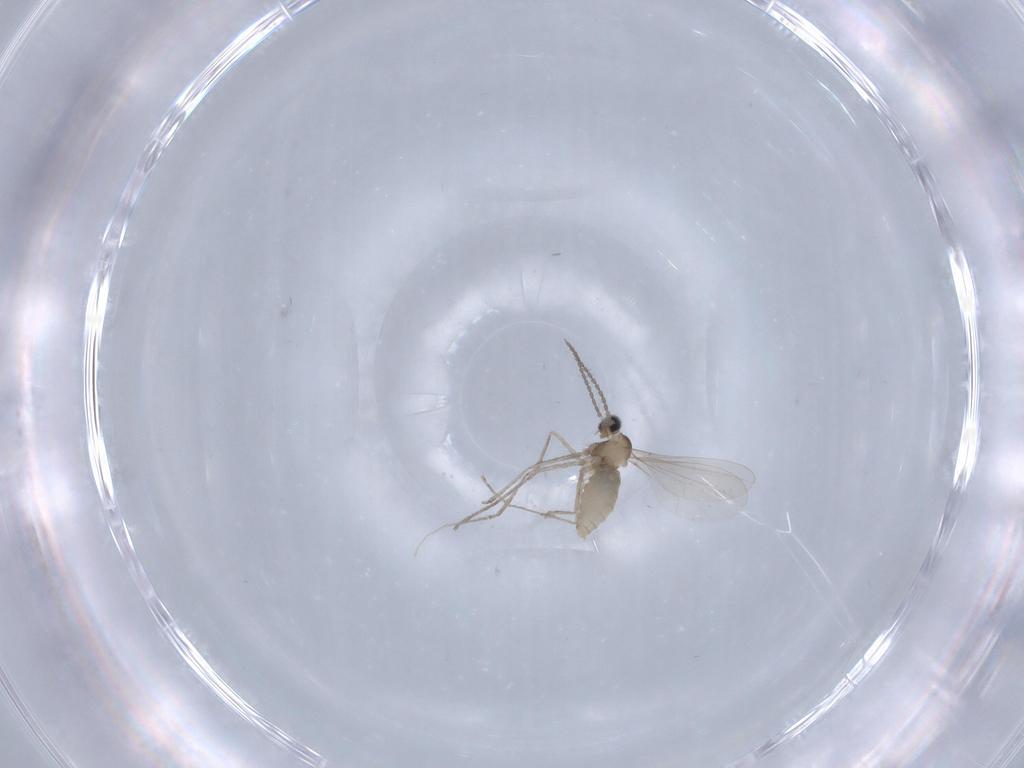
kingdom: Animalia
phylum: Arthropoda
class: Insecta
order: Diptera
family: Cecidomyiidae
